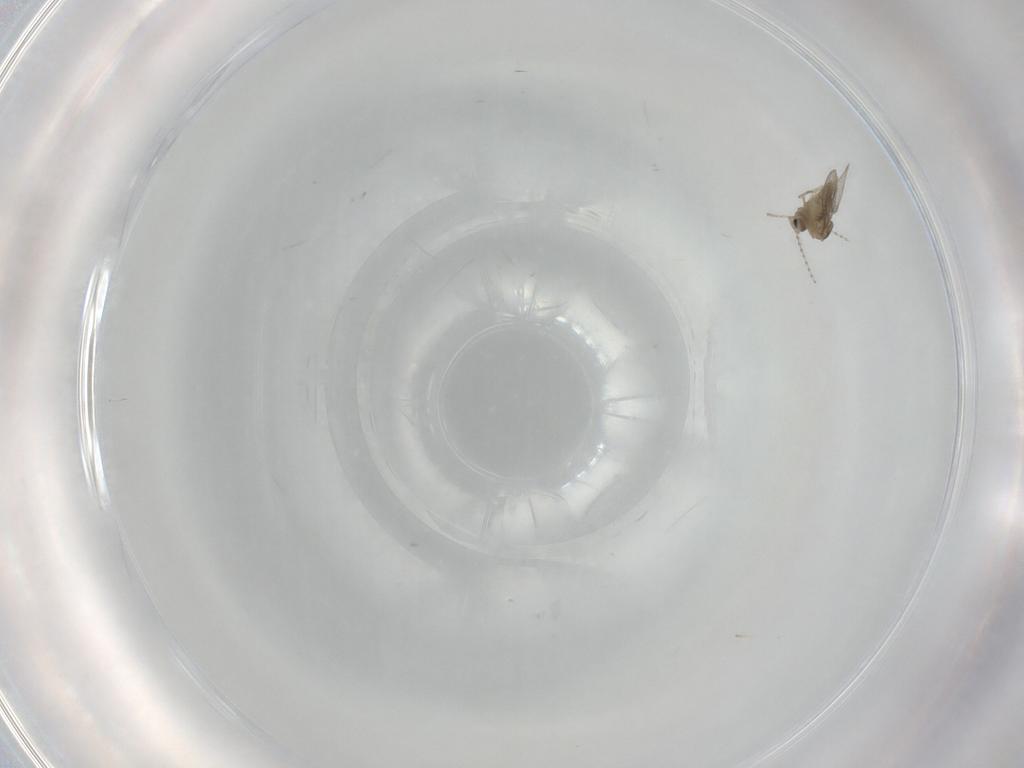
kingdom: Animalia
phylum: Arthropoda
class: Insecta
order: Diptera
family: Cecidomyiidae
